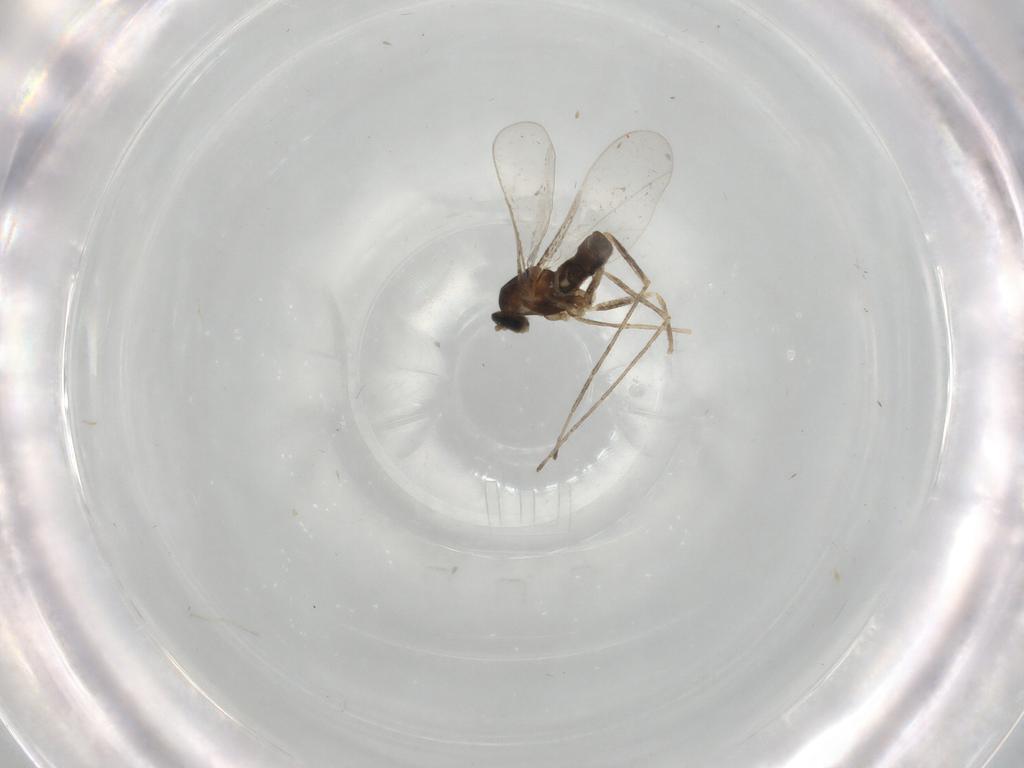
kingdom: Animalia
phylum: Arthropoda
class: Insecta
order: Diptera
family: Cecidomyiidae
